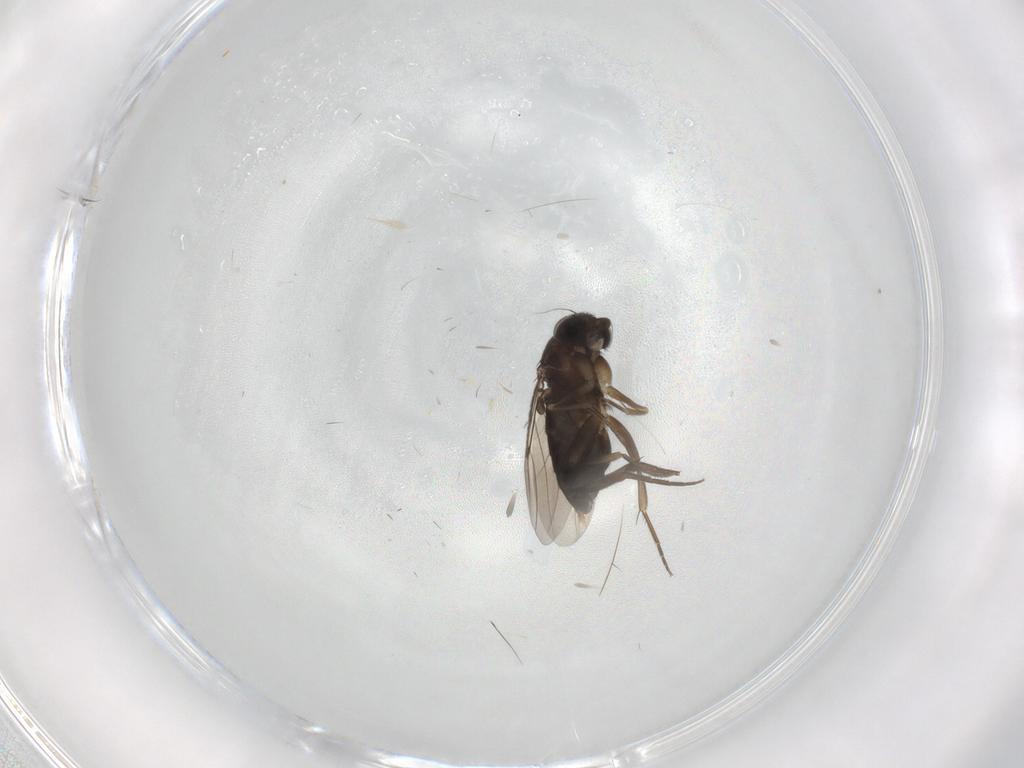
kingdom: Animalia
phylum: Arthropoda
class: Insecta
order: Diptera
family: Phoridae
